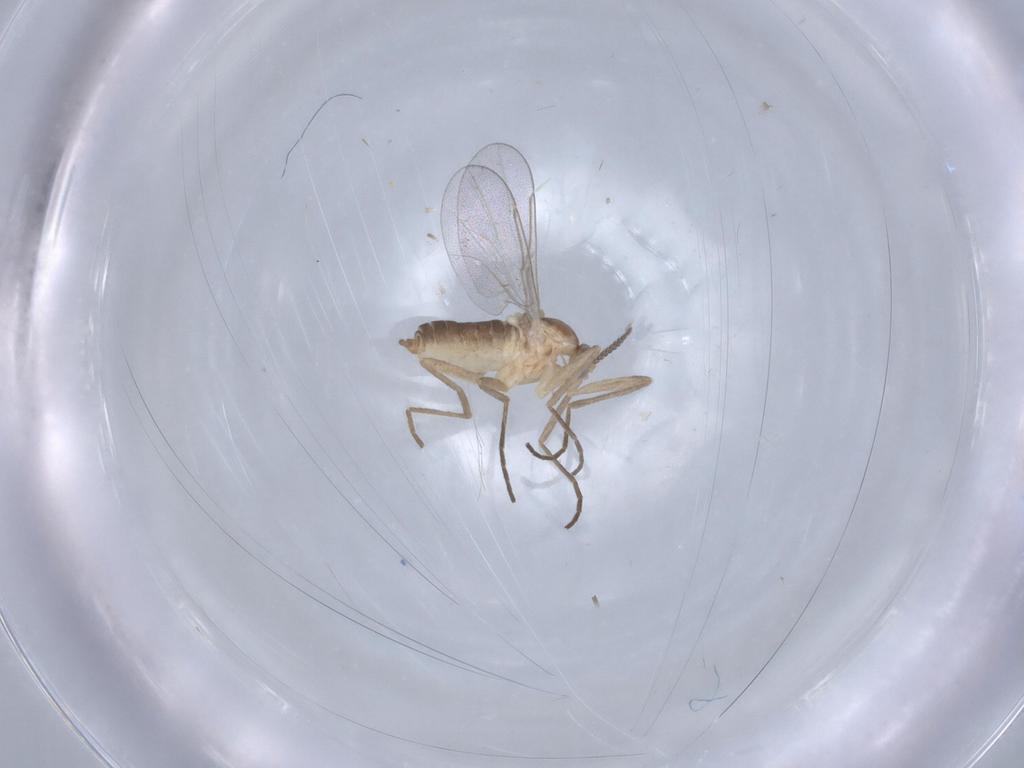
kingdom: Animalia
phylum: Arthropoda
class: Insecta
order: Diptera
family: Cecidomyiidae
